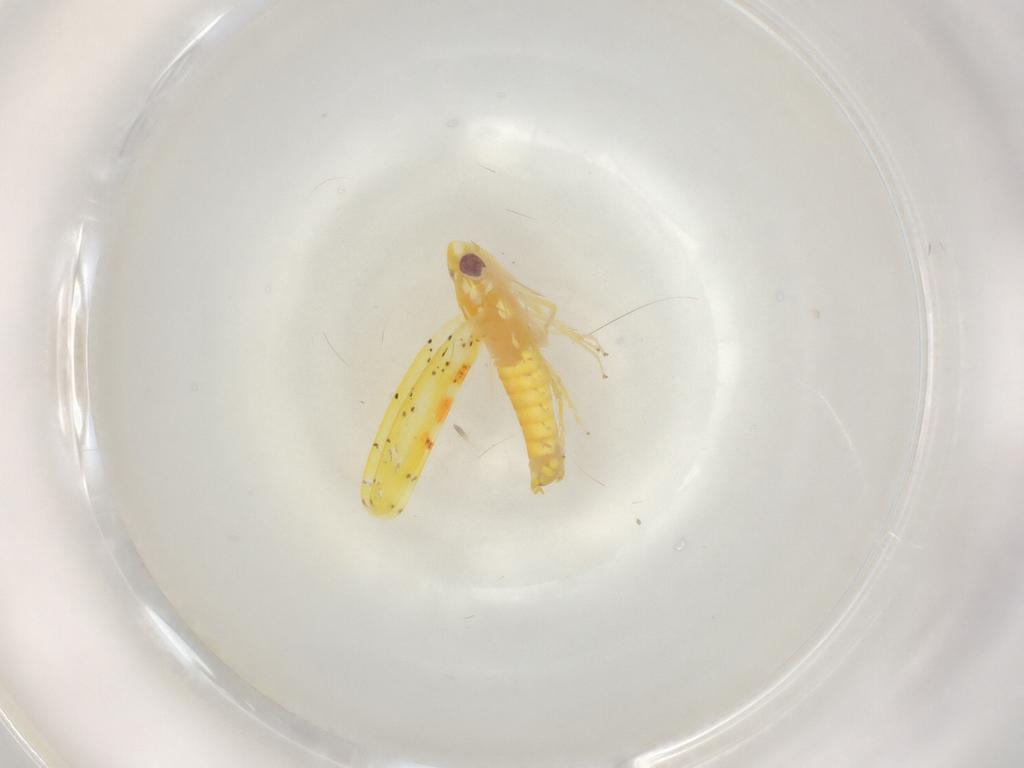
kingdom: Animalia
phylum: Arthropoda
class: Insecta
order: Hemiptera
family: Cicadellidae
